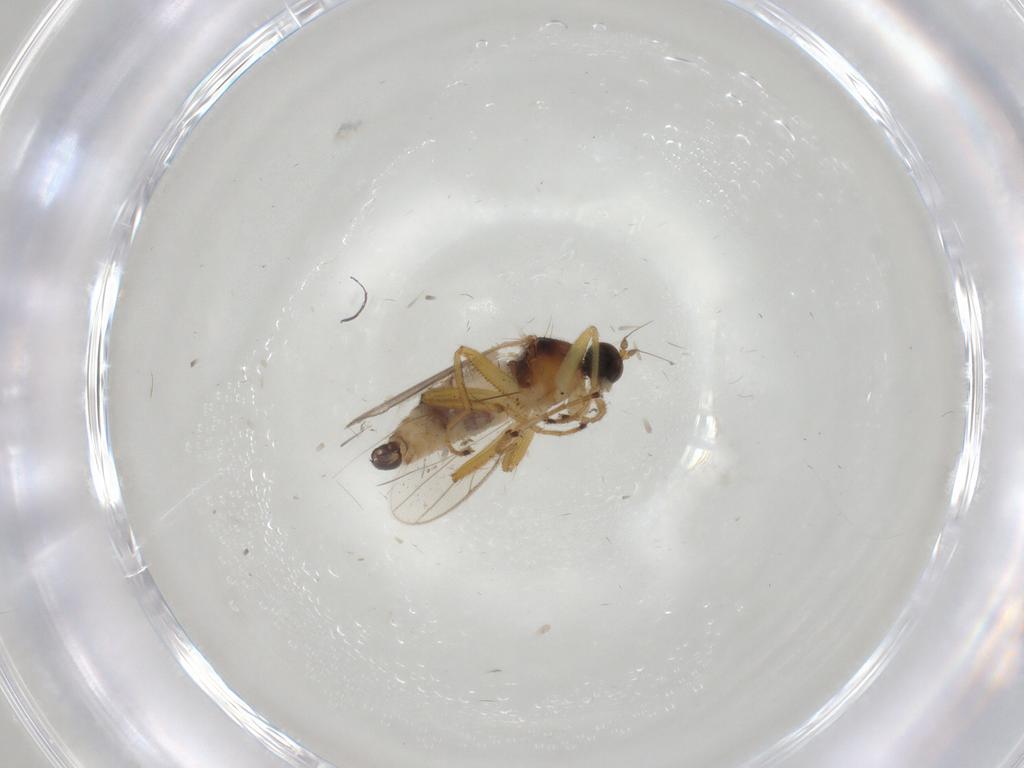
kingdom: Animalia
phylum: Arthropoda
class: Insecta
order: Diptera
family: Sciaridae
